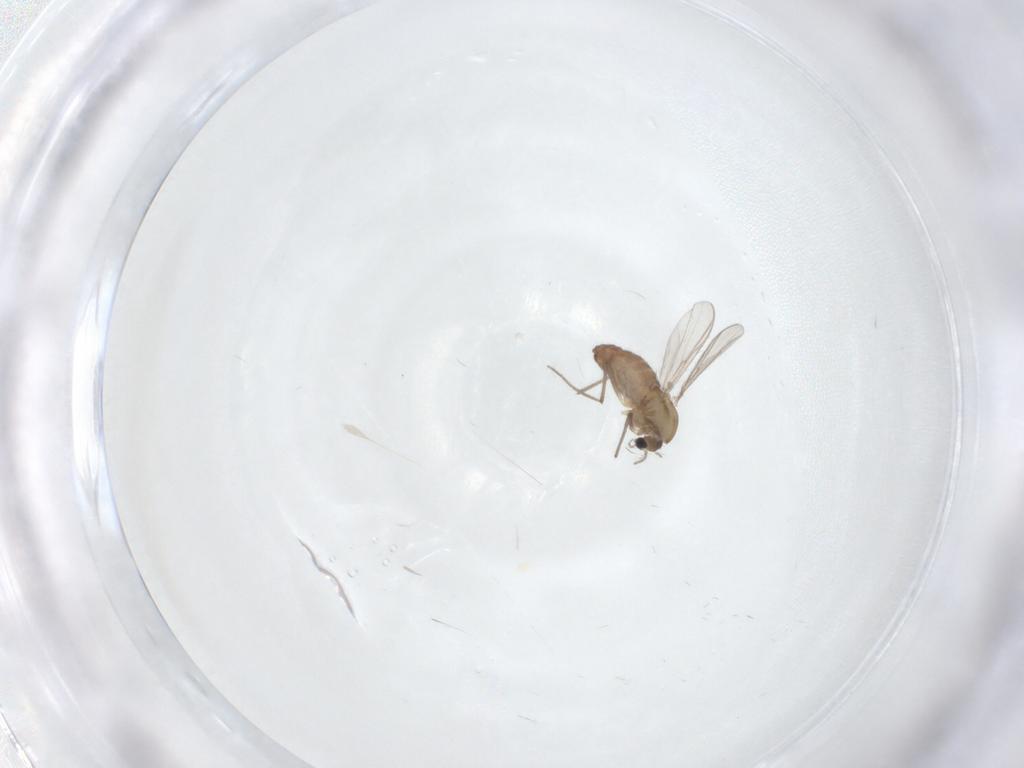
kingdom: Animalia
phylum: Arthropoda
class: Insecta
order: Diptera
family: Chironomidae
